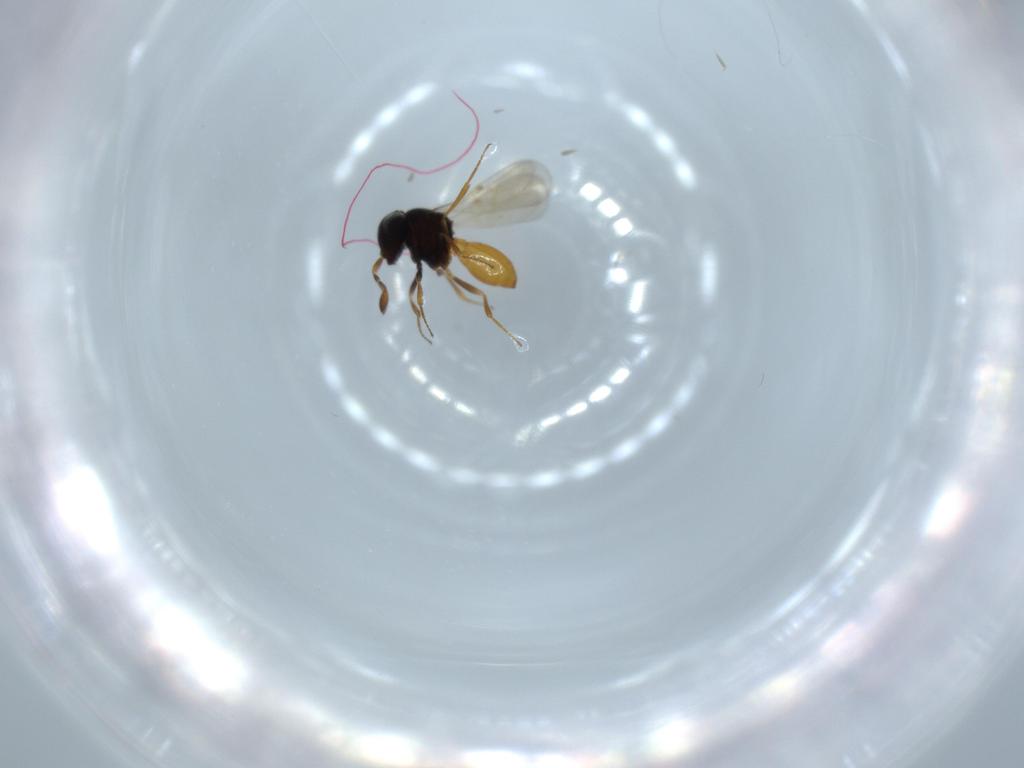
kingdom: Animalia
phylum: Arthropoda
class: Insecta
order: Hymenoptera
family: Scelionidae
